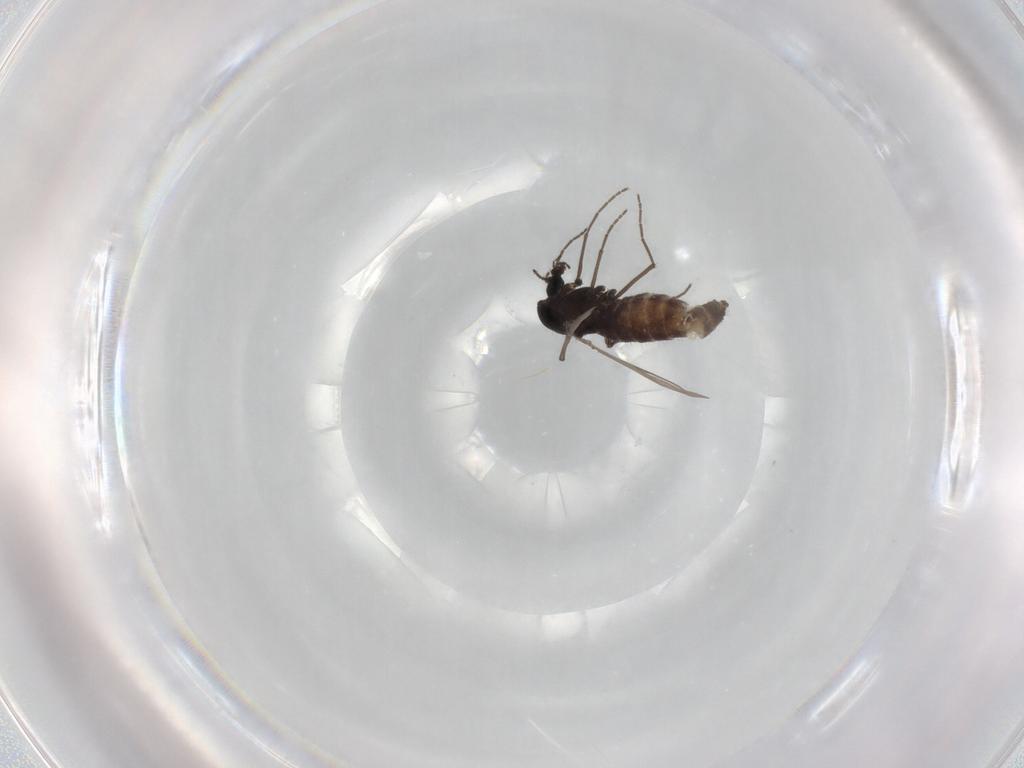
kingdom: Animalia
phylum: Arthropoda
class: Insecta
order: Diptera
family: Chironomidae
